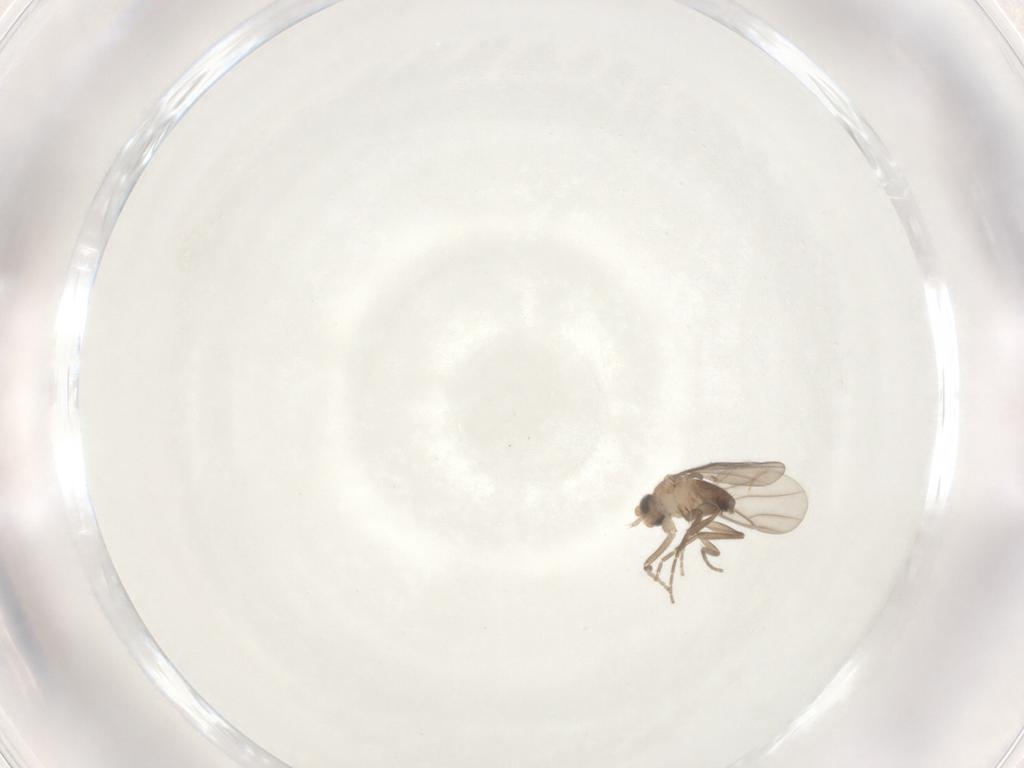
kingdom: Animalia
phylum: Arthropoda
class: Insecta
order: Diptera
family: Phoridae
